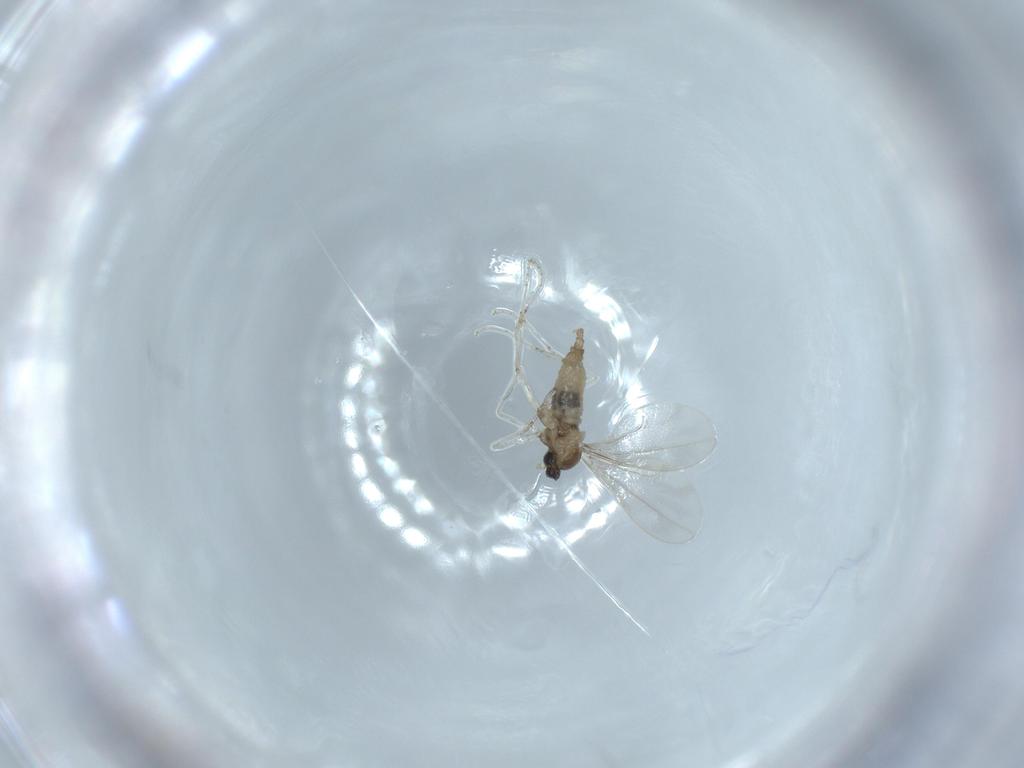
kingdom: Animalia
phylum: Arthropoda
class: Insecta
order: Diptera
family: Cecidomyiidae
